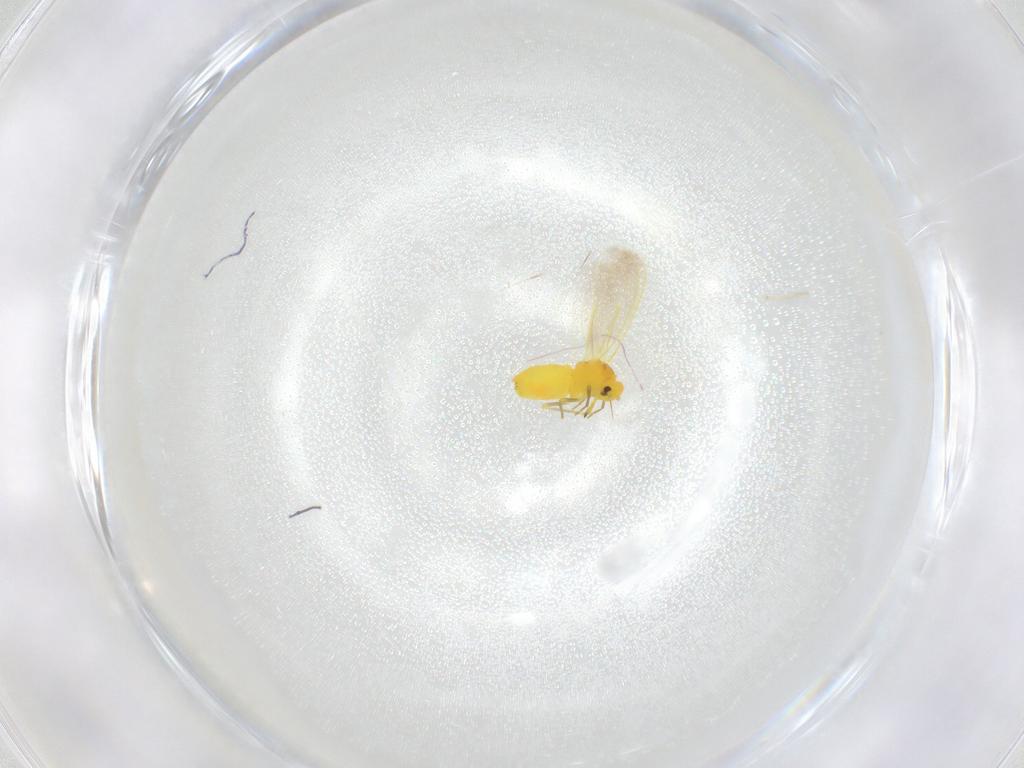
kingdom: Animalia
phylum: Arthropoda
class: Insecta
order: Hemiptera
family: Aleyrodidae
